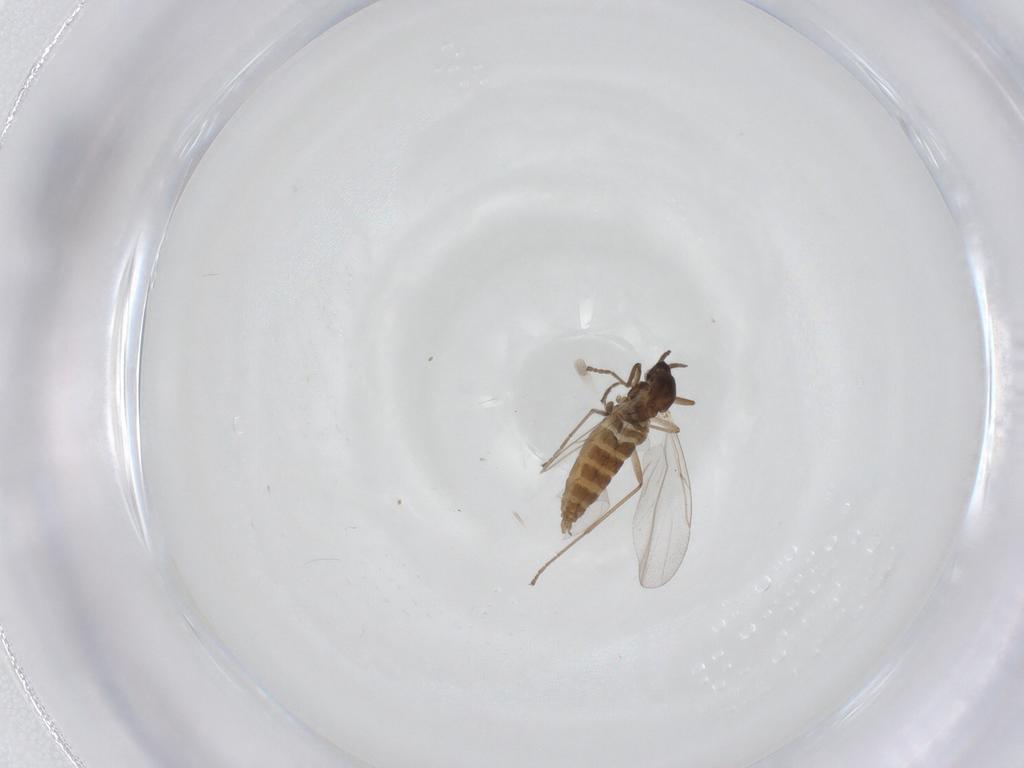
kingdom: Animalia
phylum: Arthropoda
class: Insecta
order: Diptera
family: Cecidomyiidae
